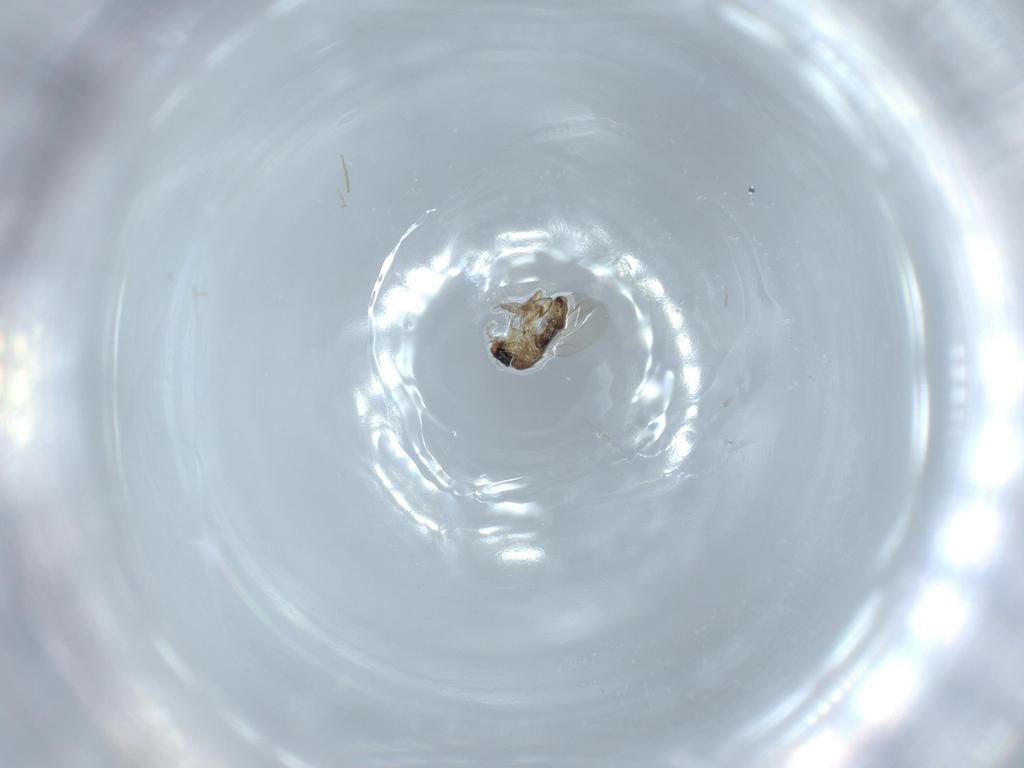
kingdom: Animalia
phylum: Arthropoda
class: Insecta
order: Diptera
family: Phoridae
